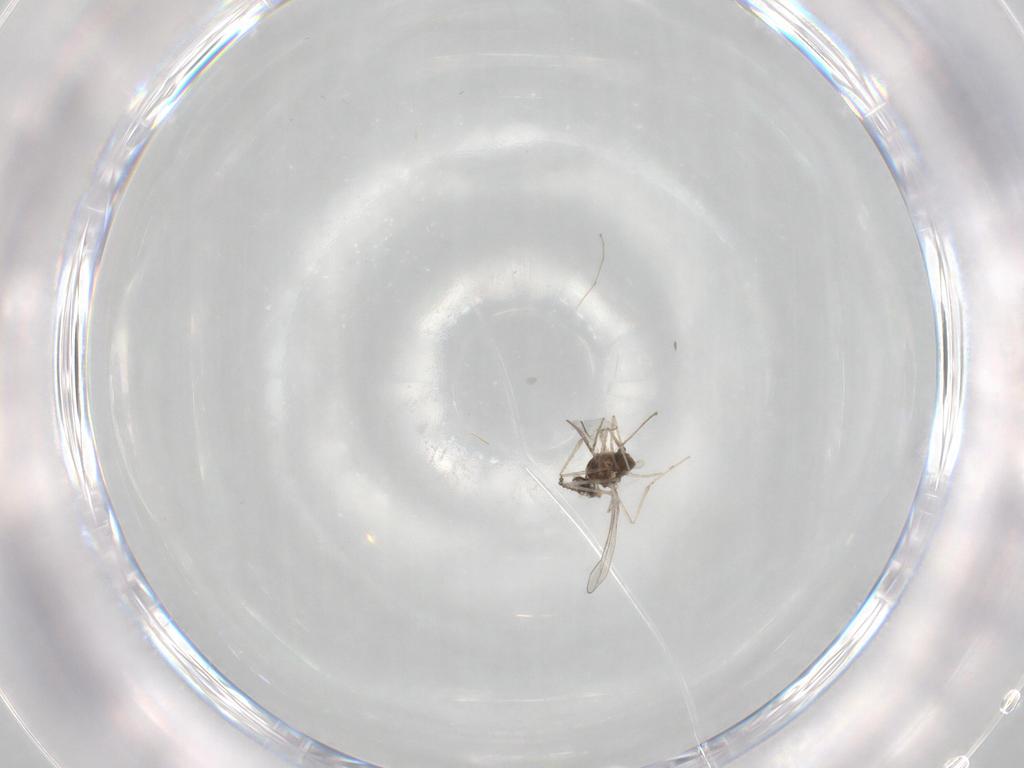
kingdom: Animalia
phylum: Arthropoda
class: Insecta
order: Diptera
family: Cecidomyiidae
